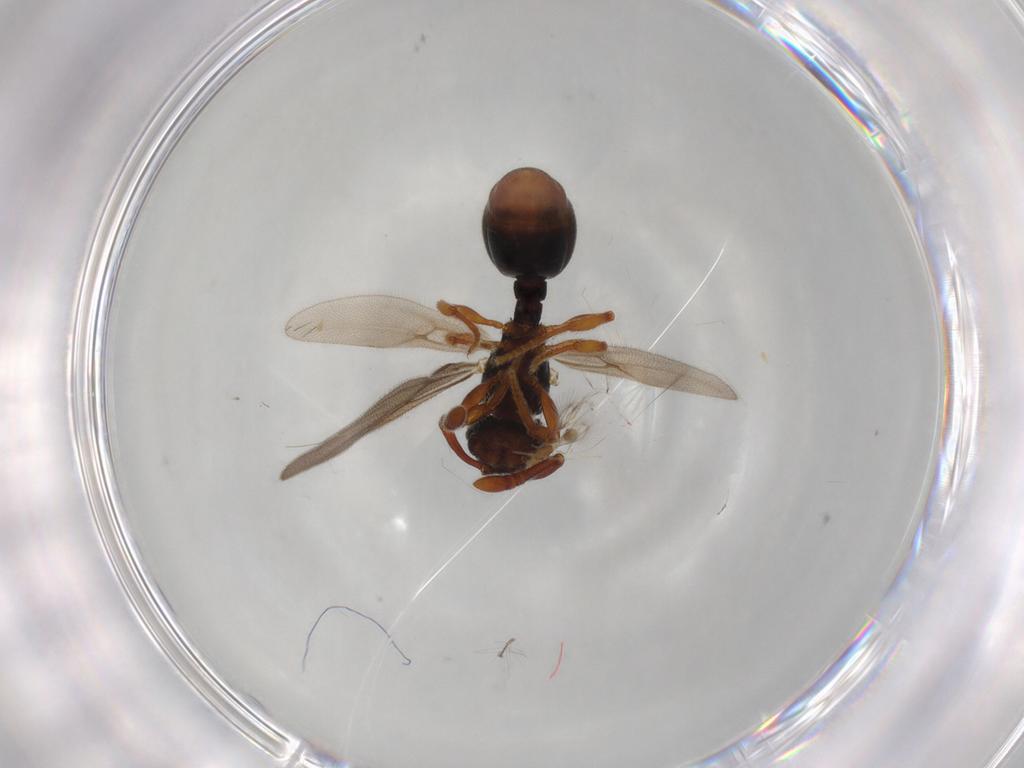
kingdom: Animalia
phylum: Arthropoda
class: Insecta
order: Hymenoptera
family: Formicidae
